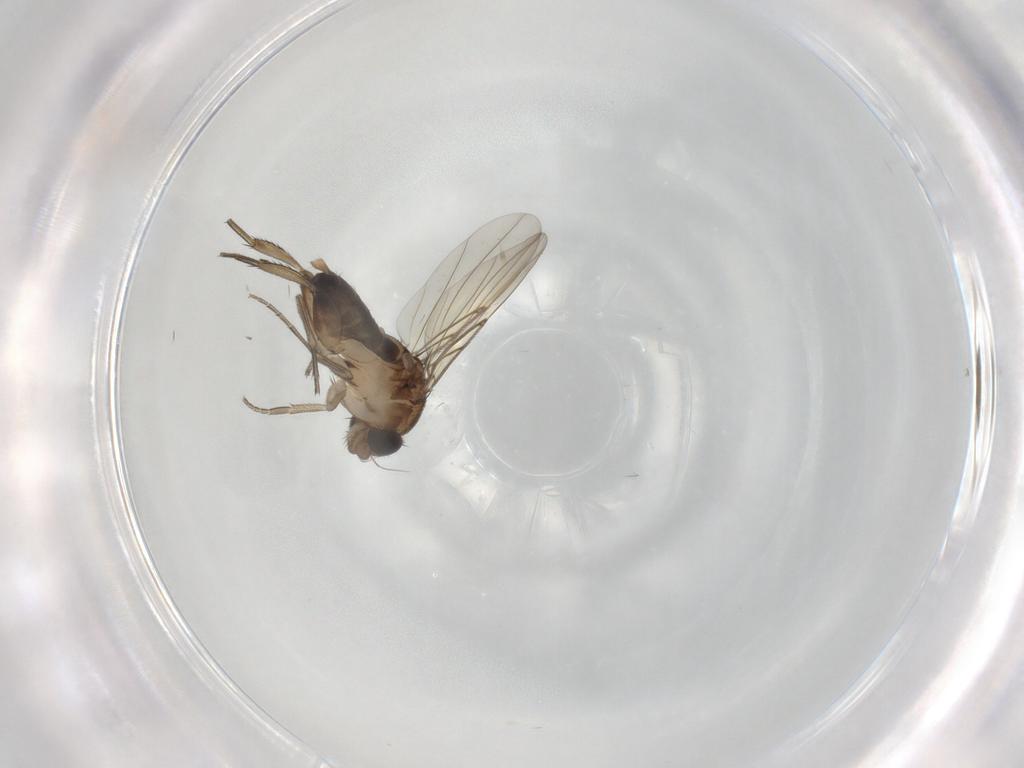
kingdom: Animalia
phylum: Arthropoda
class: Insecta
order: Diptera
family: Phoridae
